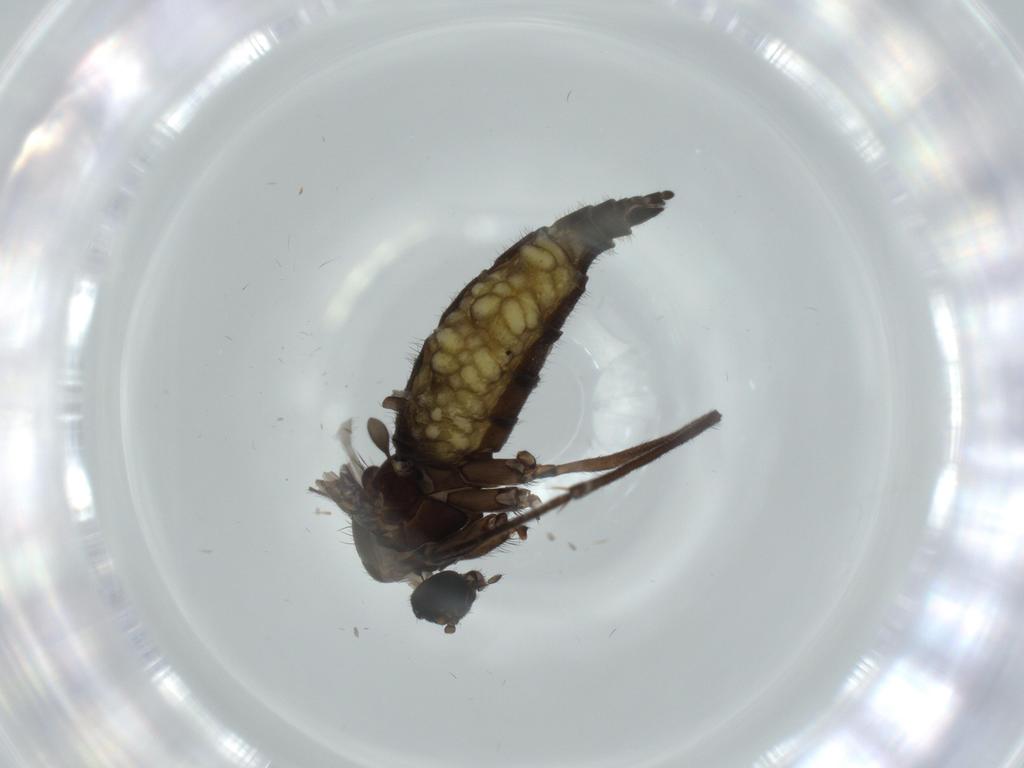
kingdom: Animalia
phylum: Arthropoda
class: Insecta
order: Diptera
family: Sciaridae
